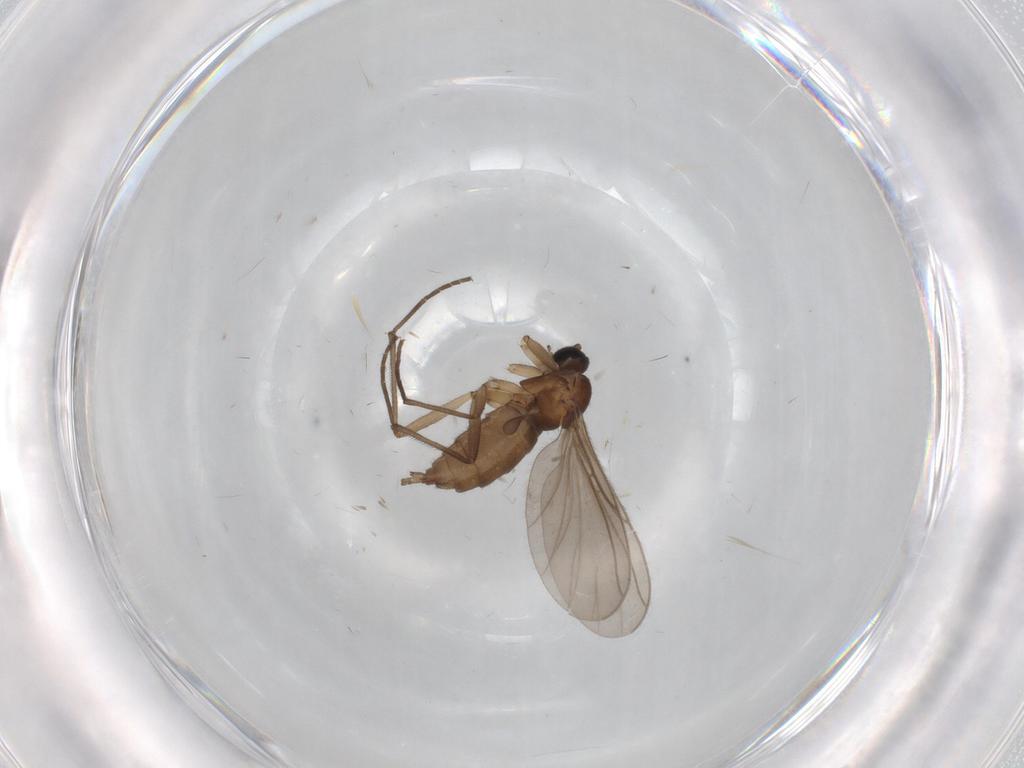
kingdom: Animalia
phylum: Arthropoda
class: Insecta
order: Diptera
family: Sciaridae
